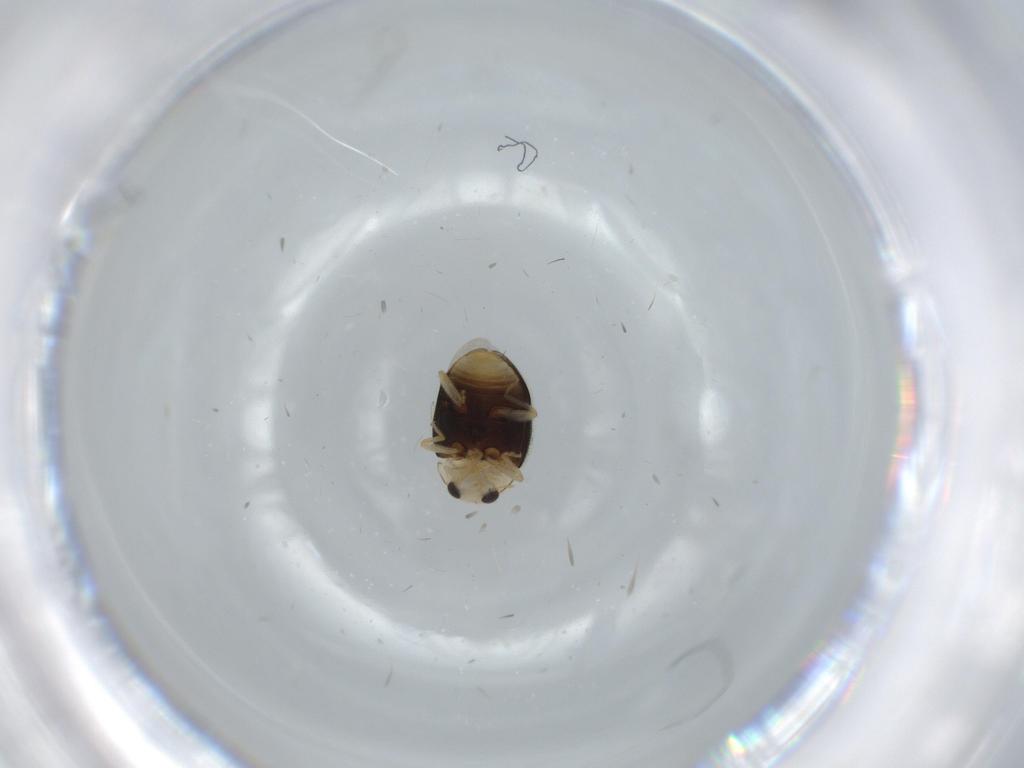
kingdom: Animalia
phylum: Arthropoda
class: Insecta
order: Coleoptera
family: Coccinellidae
